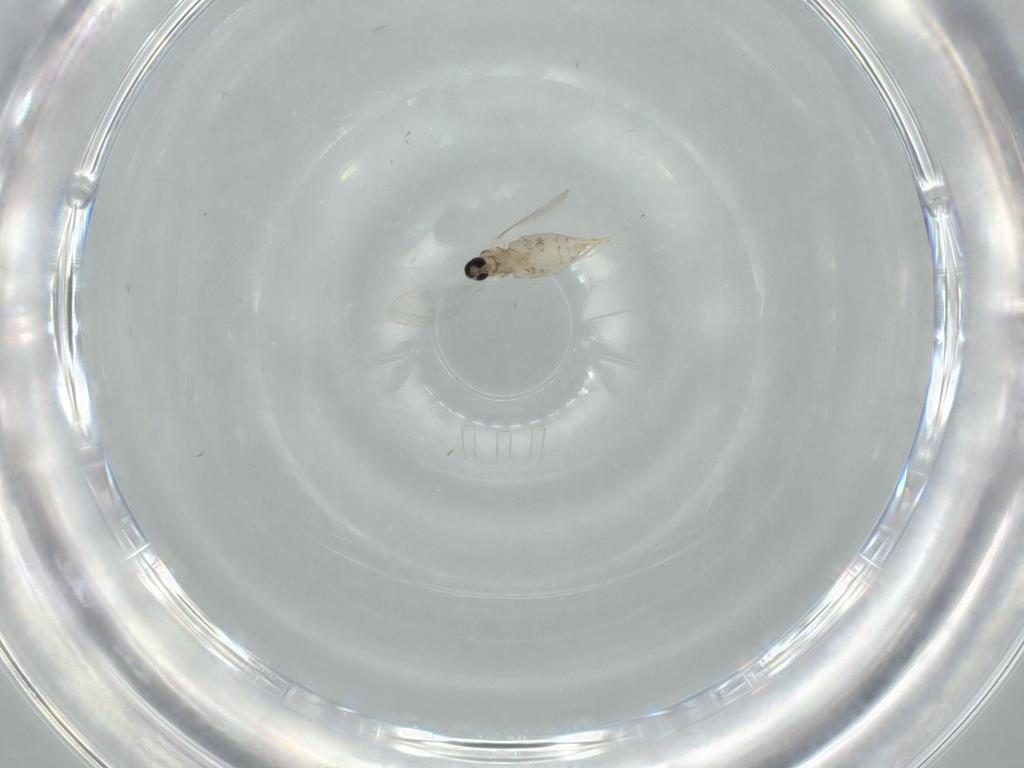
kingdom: Animalia
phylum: Arthropoda
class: Insecta
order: Diptera
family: Cecidomyiidae
